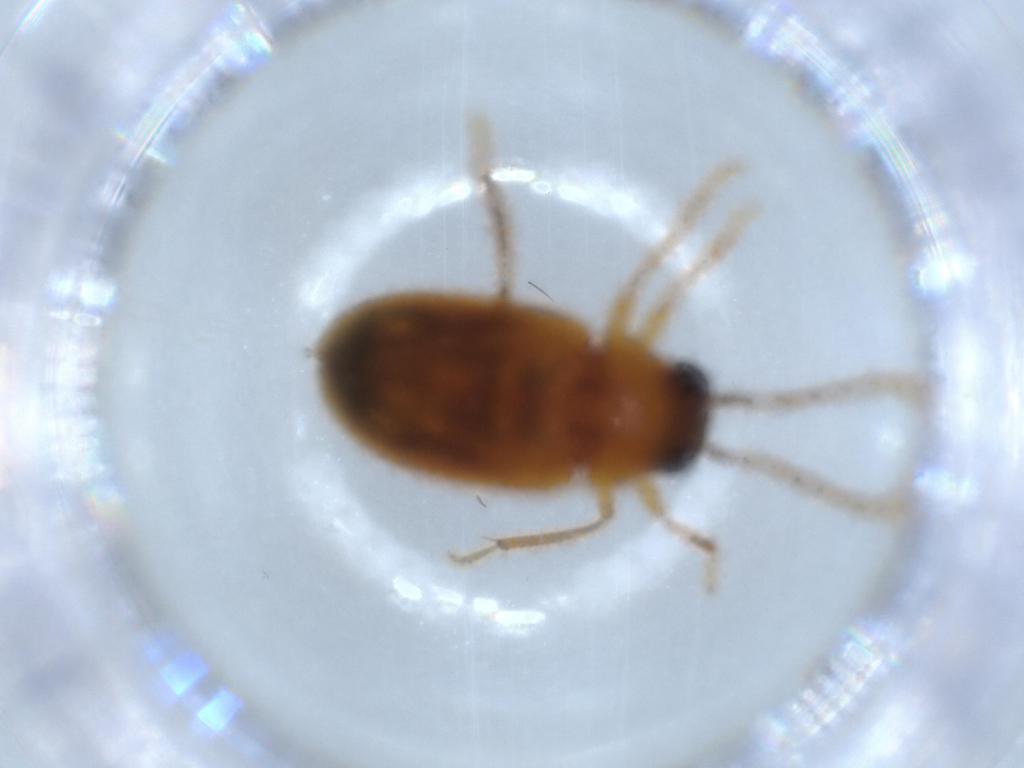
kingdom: Animalia
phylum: Arthropoda
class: Insecta
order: Coleoptera
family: Ptilodactylidae
